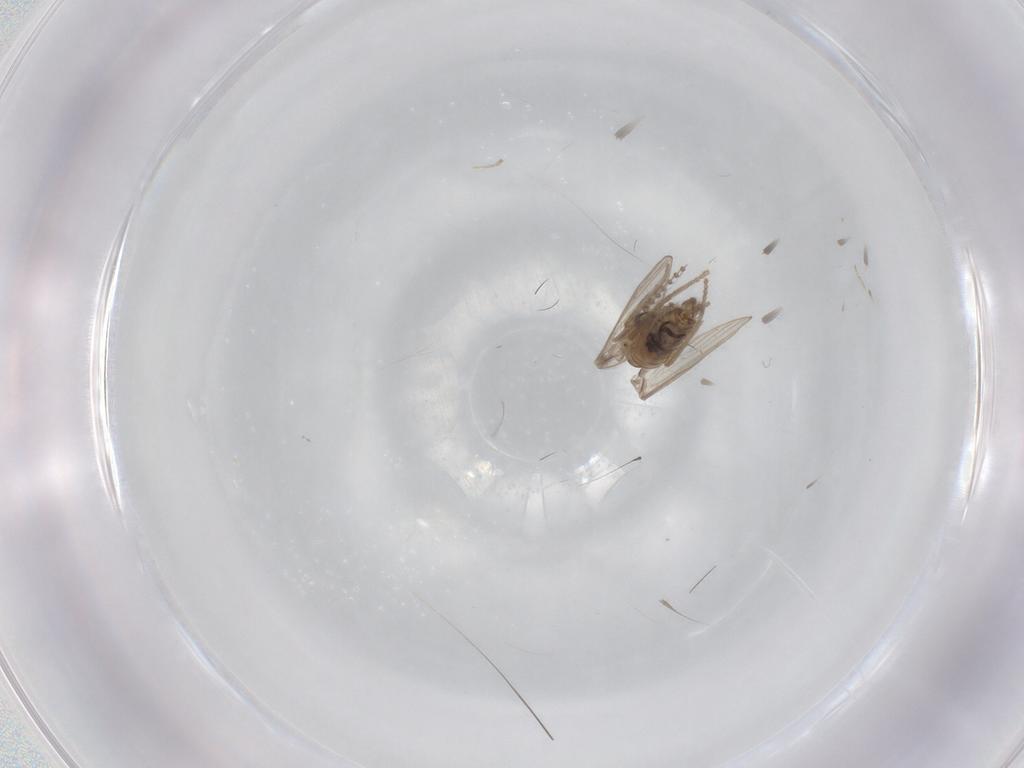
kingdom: Animalia
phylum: Arthropoda
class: Insecta
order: Diptera
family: Psychodidae
